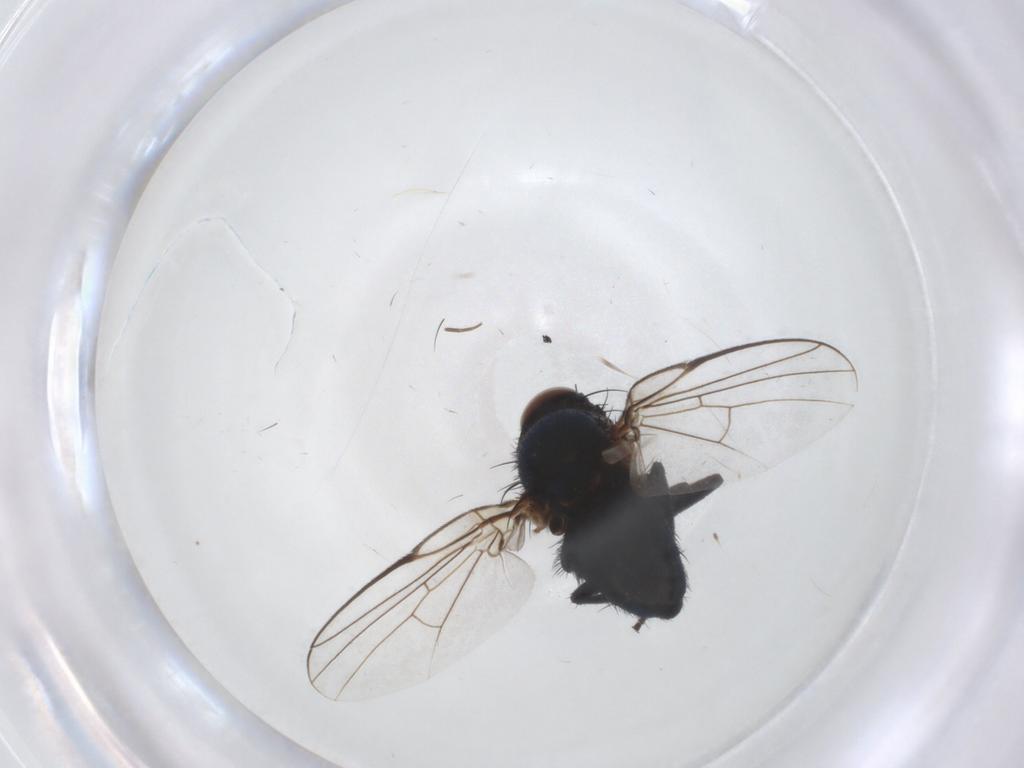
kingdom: Animalia
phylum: Arthropoda
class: Insecta
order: Diptera
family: Agromyzidae
